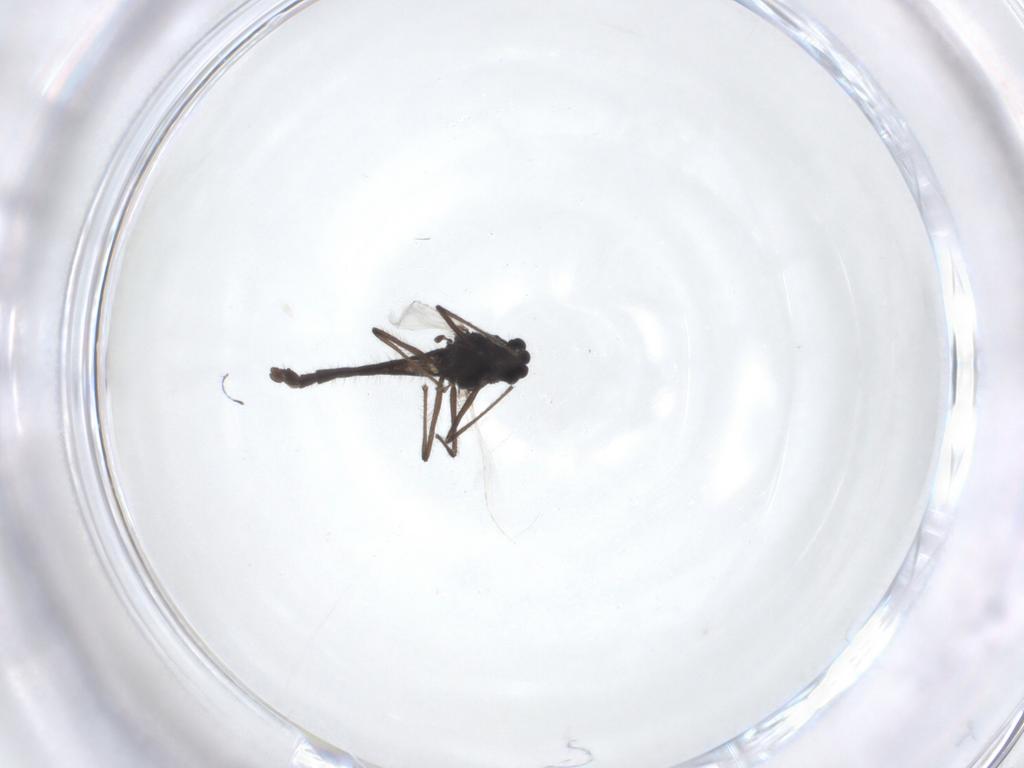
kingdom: Animalia
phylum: Arthropoda
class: Insecta
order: Diptera
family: Chironomidae
